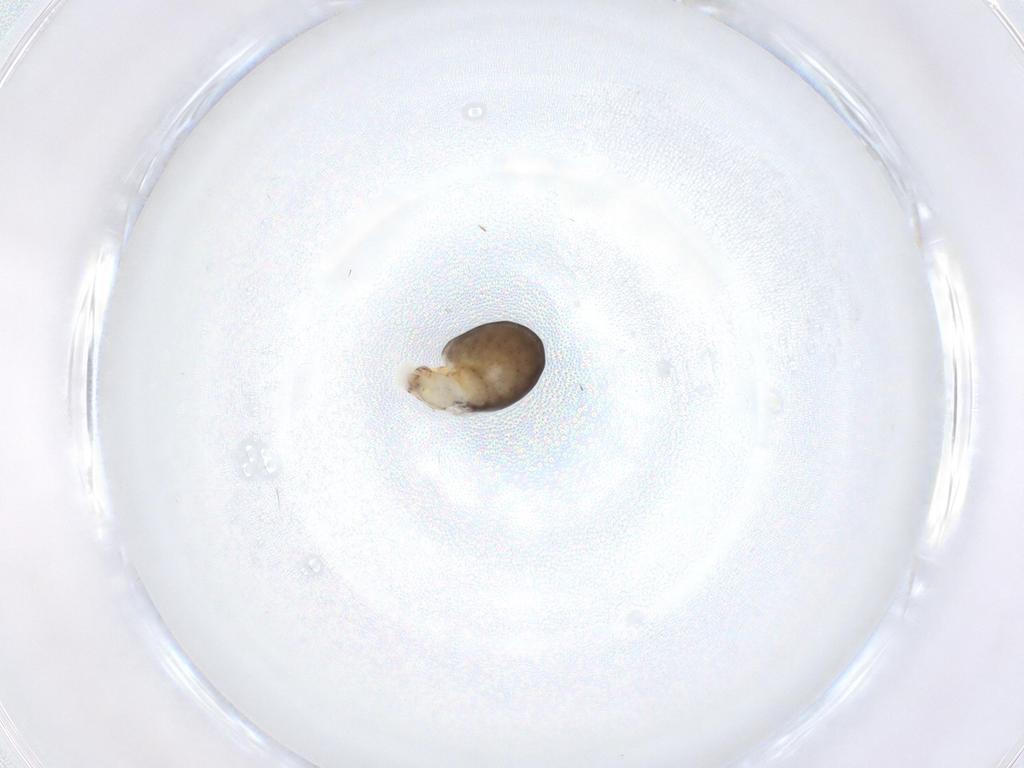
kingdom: Animalia
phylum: Arthropoda
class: Insecta
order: Hymenoptera
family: Dryinidae
